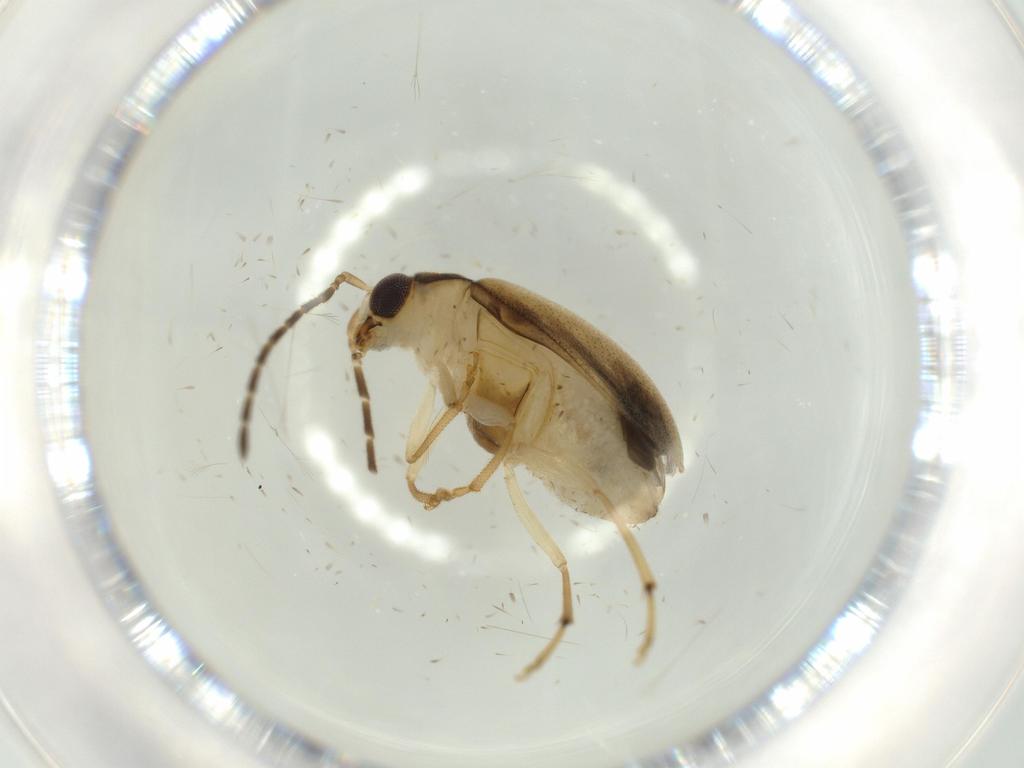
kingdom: Animalia
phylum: Arthropoda
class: Insecta
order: Coleoptera
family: Chrysomelidae
